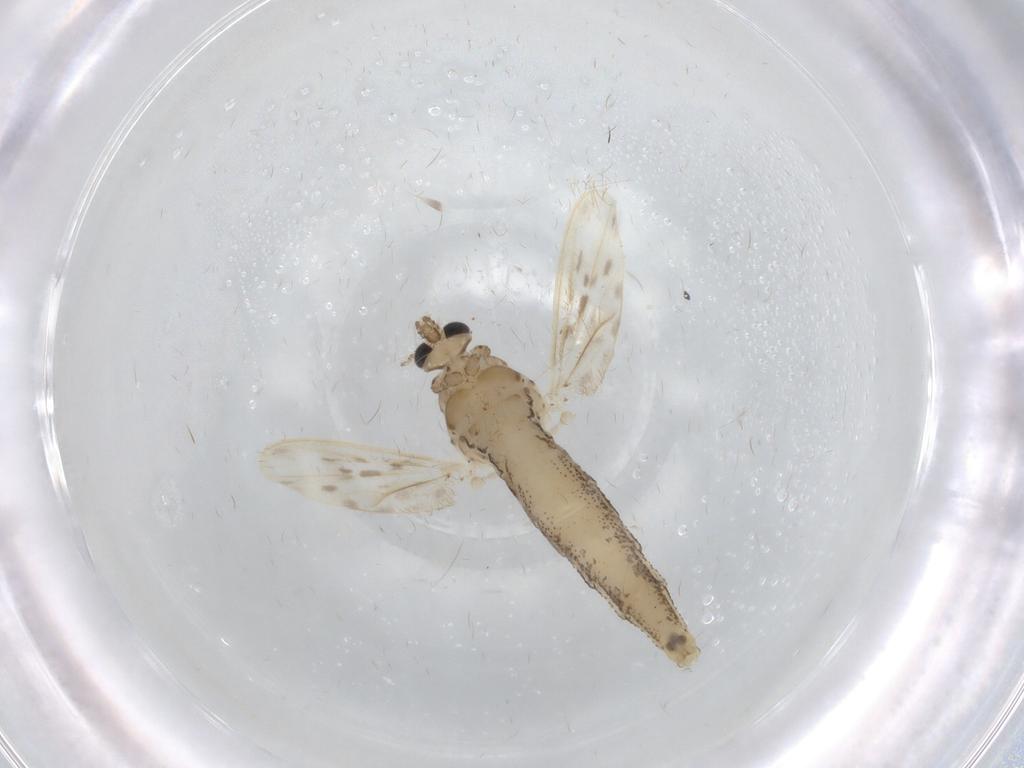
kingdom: Animalia
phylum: Arthropoda
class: Insecta
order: Diptera
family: Chaoboridae
